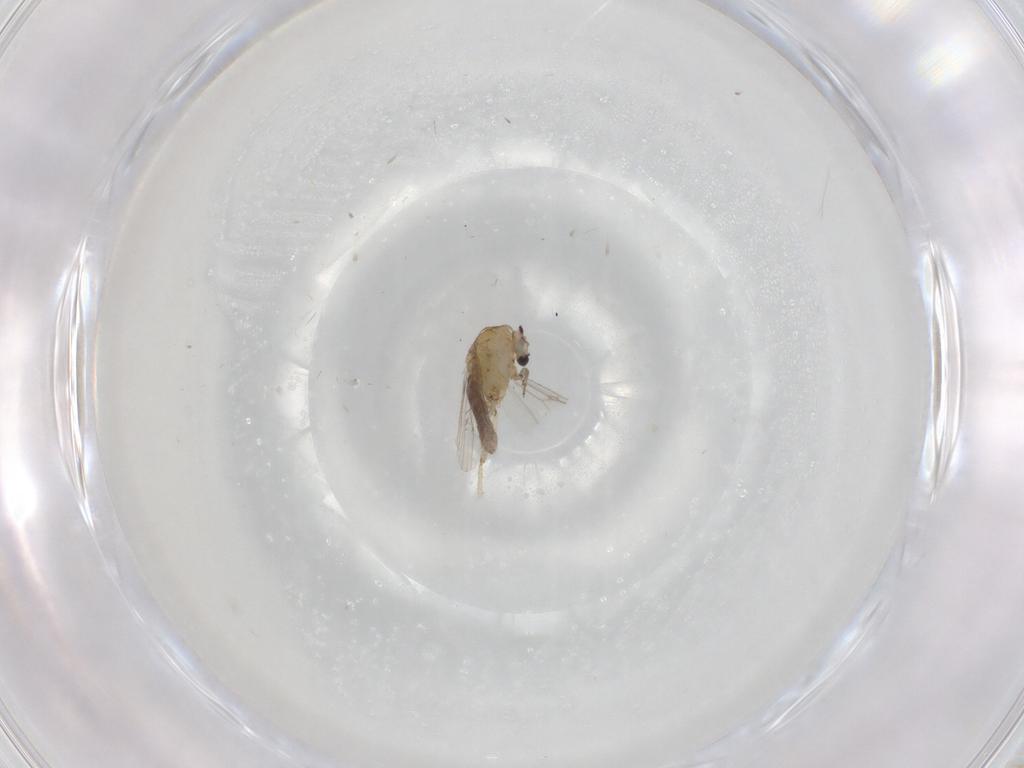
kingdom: Animalia
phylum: Arthropoda
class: Insecta
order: Diptera
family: Ceratopogonidae
